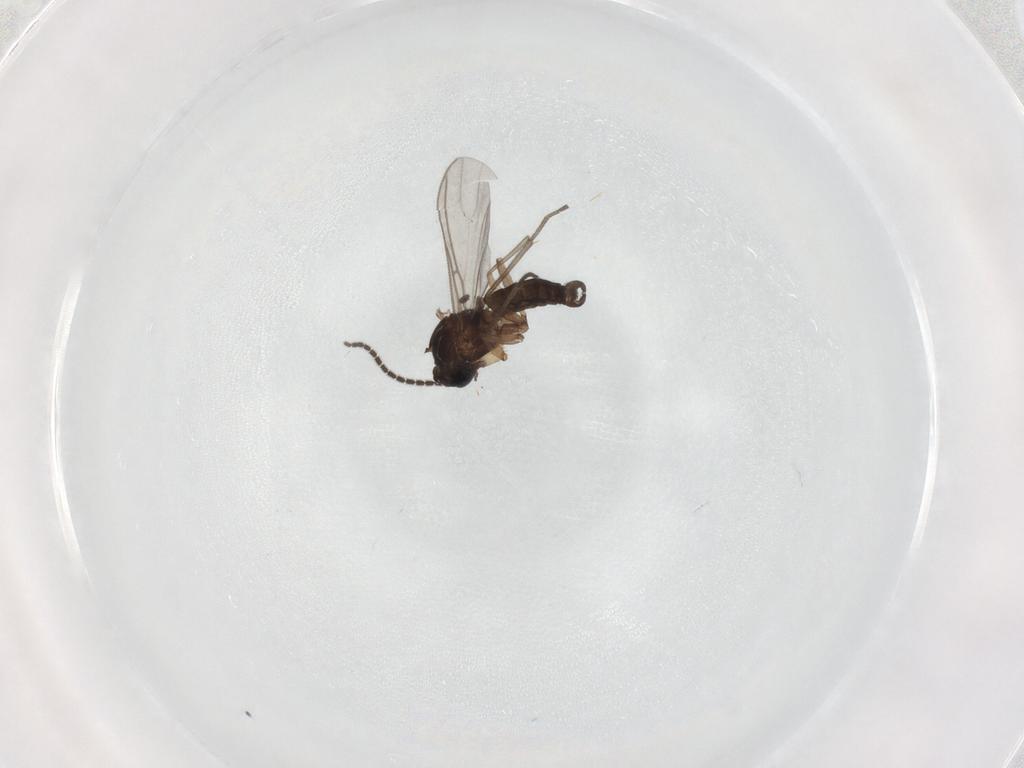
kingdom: Animalia
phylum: Arthropoda
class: Insecta
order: Diptera
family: Sciaridae
